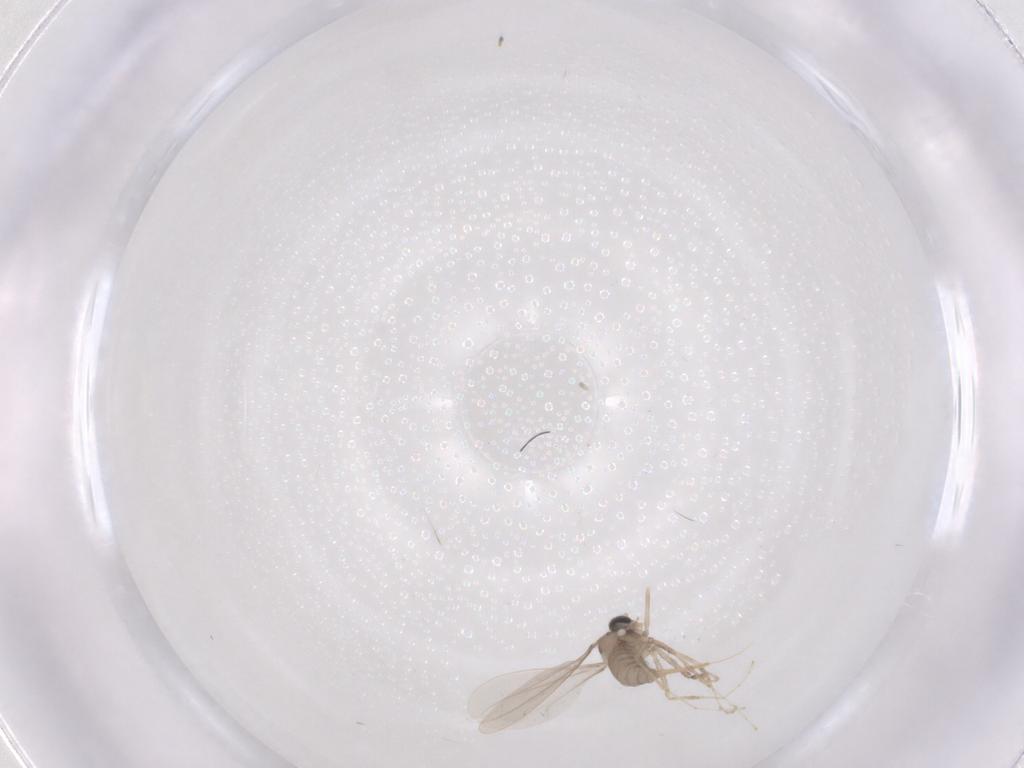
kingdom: Animalia
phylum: Arthropoda
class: Insecta
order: Diptera
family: Cecidomyiidae
